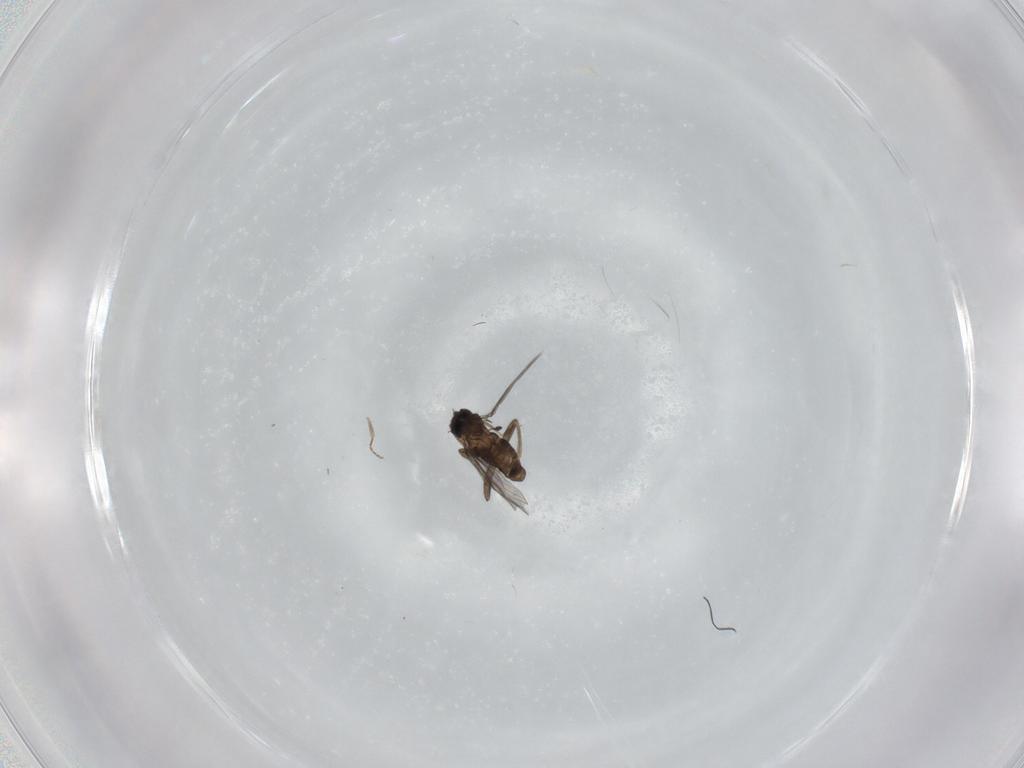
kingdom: Animalia
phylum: Arthropoda
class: Insecta
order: Diptera
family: Phoridae
